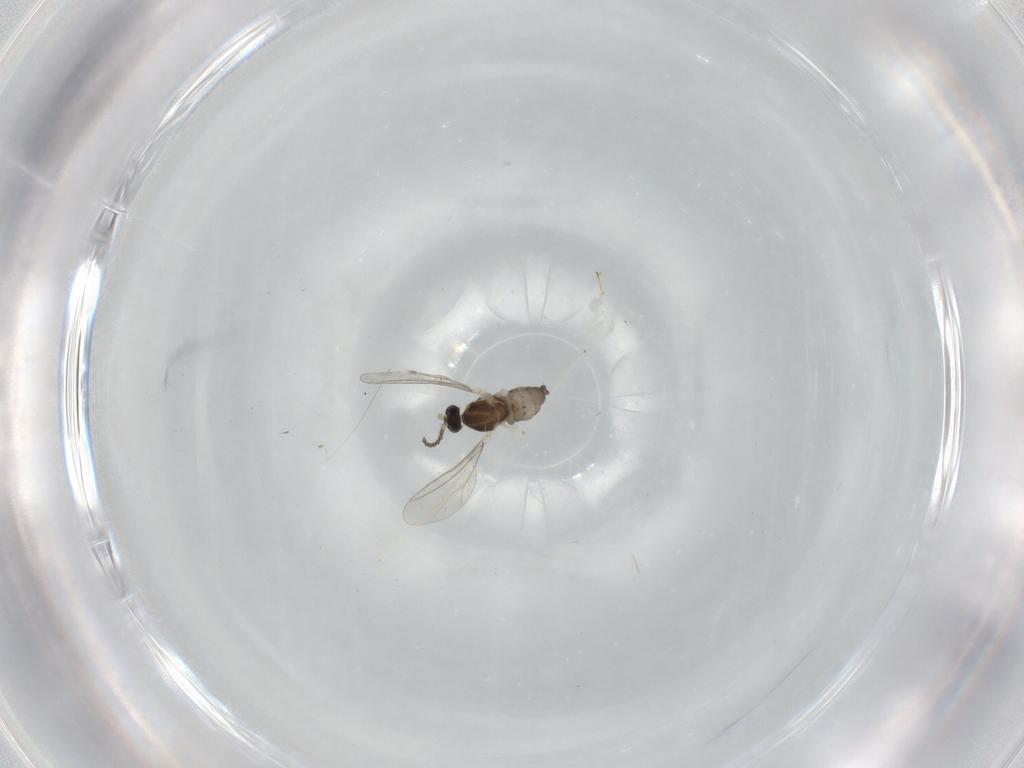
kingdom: Animalia
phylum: Arthropoda
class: Insecta
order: Diptera
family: Cecidomyiidae
